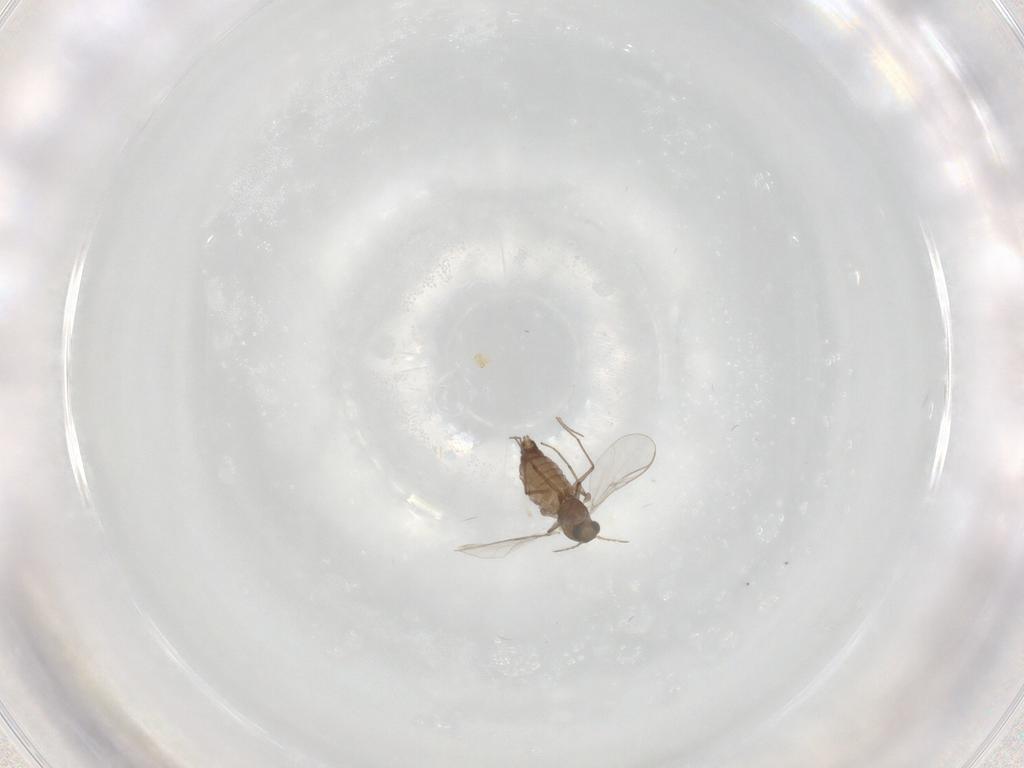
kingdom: Animalia
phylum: Arthropoda
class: Insecta
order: Diptera
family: Chironomidae
